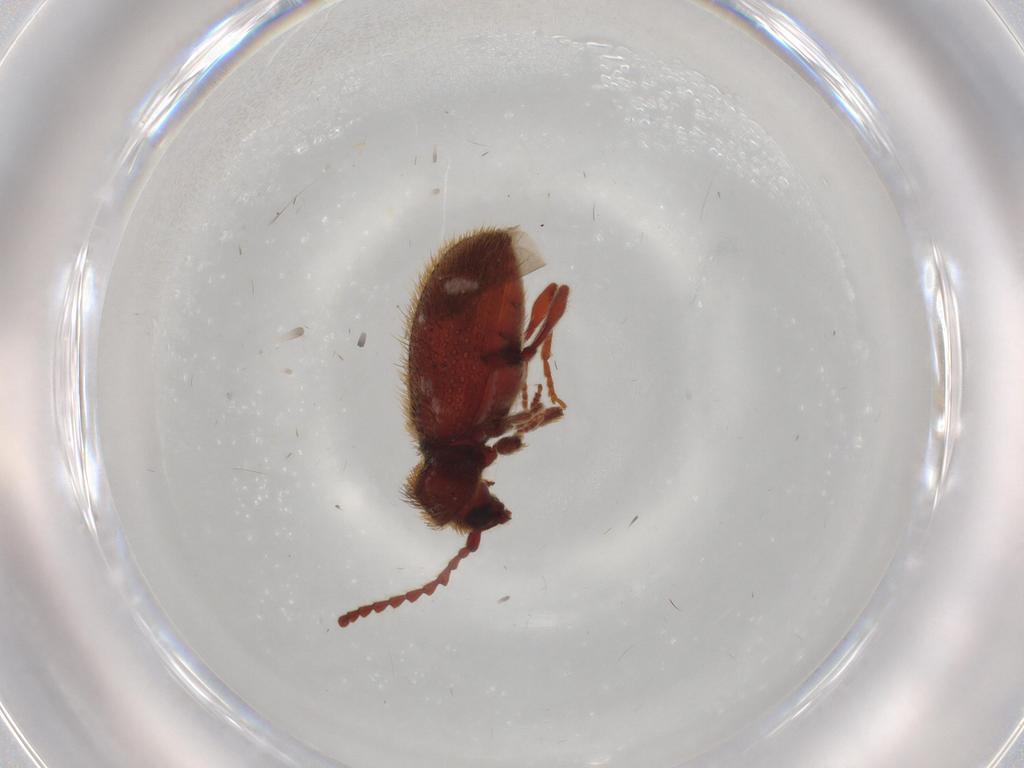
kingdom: Animalia
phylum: Arthropoda
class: Insecta
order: Coleoptera
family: Ptinidae
